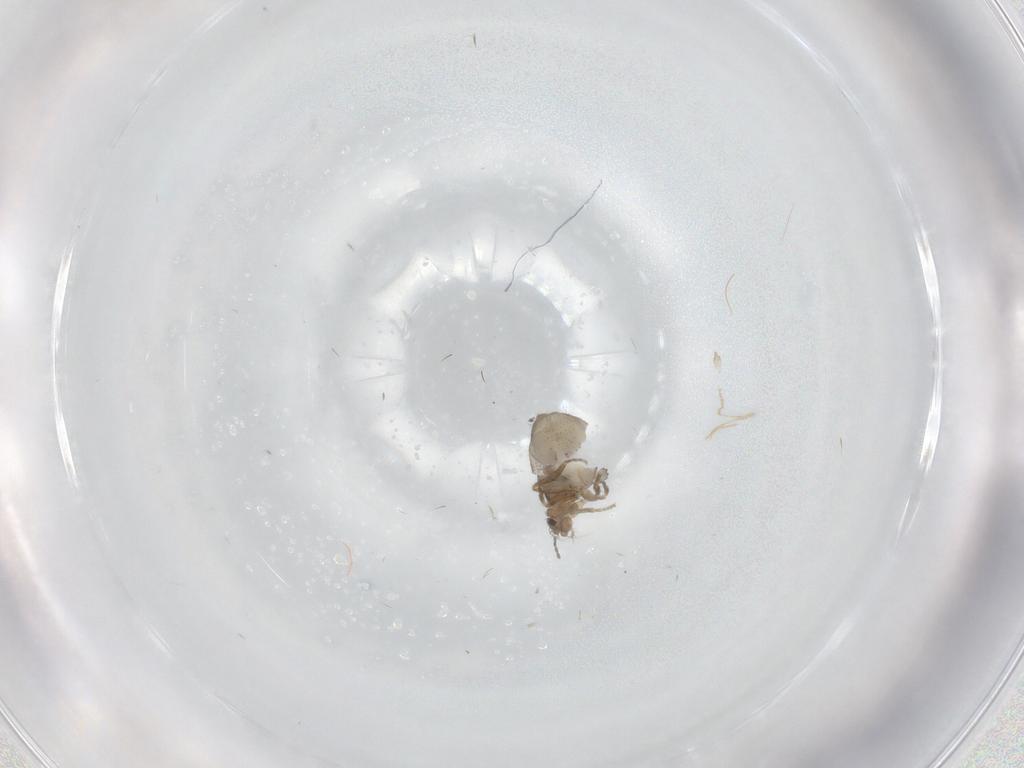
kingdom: Animalia
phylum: Arthropoda
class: Insecta
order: Hemiptera
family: Cicadellidae
